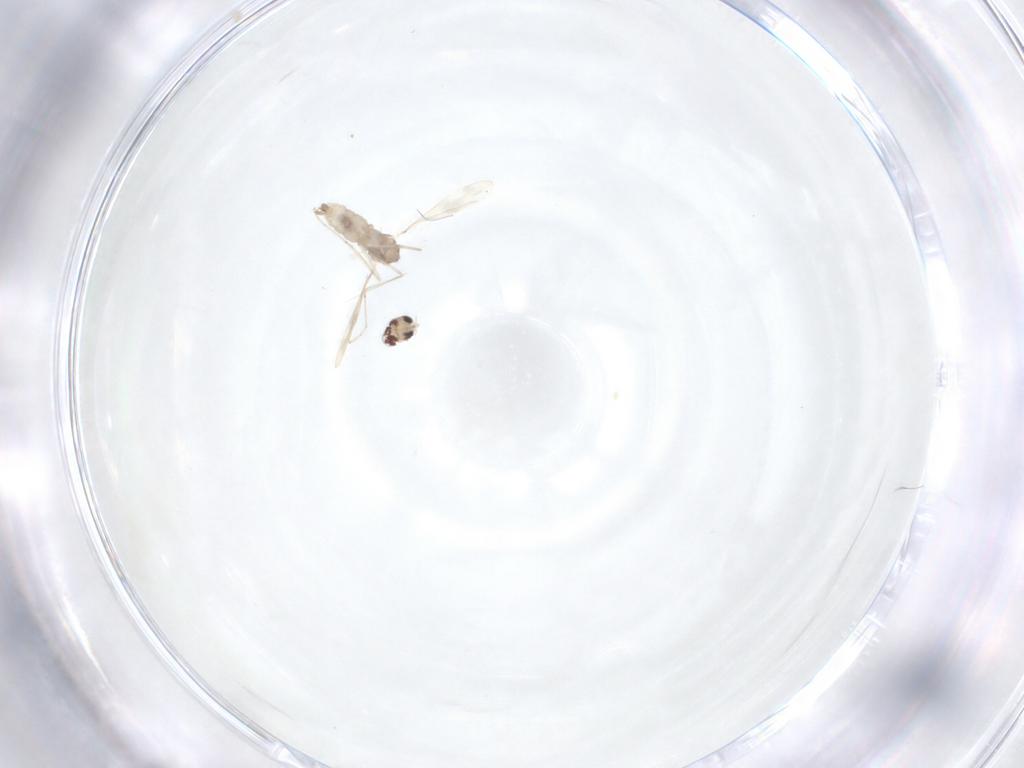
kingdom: Animalia
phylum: Arthropoda
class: Insecta
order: Diptera
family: Cecidomyiidae
